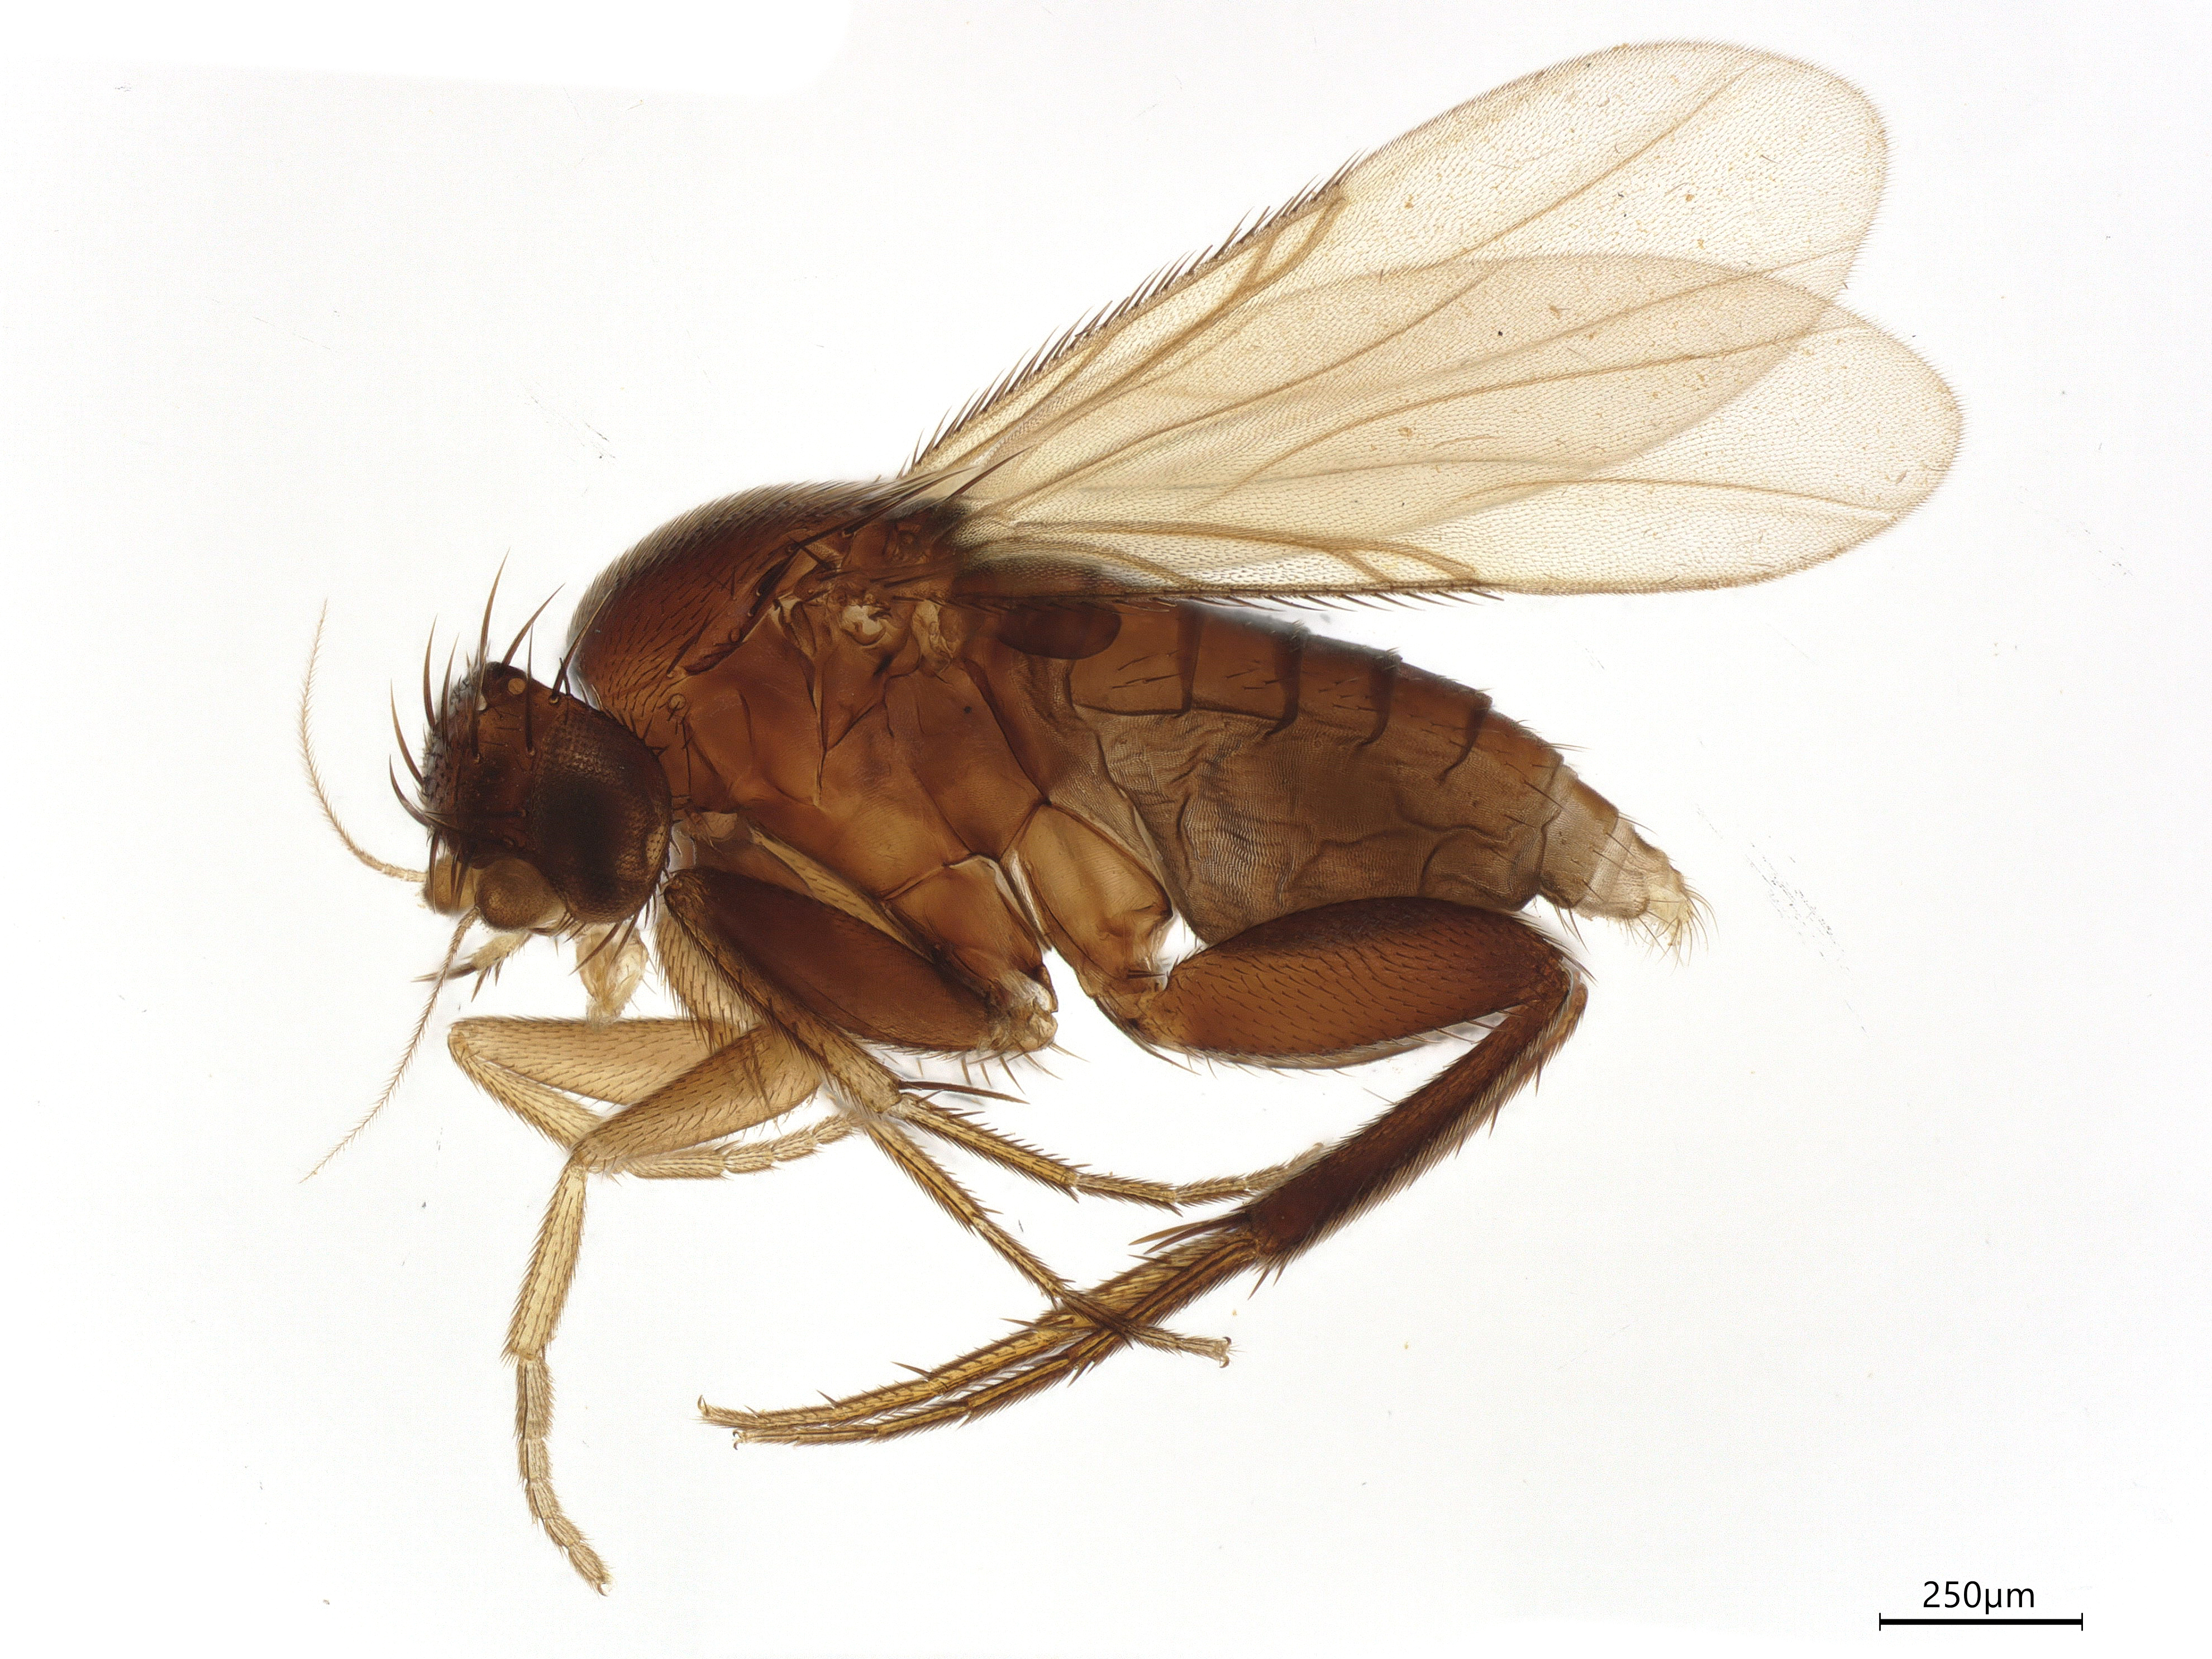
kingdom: Animalia
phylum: Arthropoda
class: Insecta
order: Diptera
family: Phoridae
